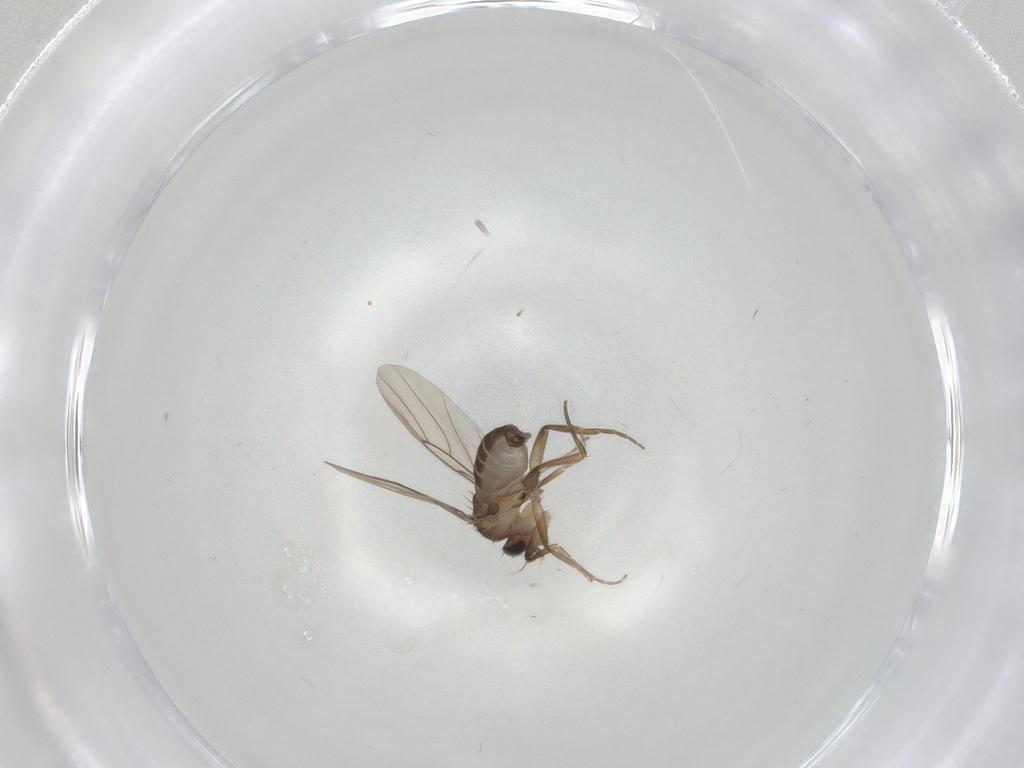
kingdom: Animalia
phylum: Arthropoda
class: Insecta
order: Diptera
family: Phoridae
